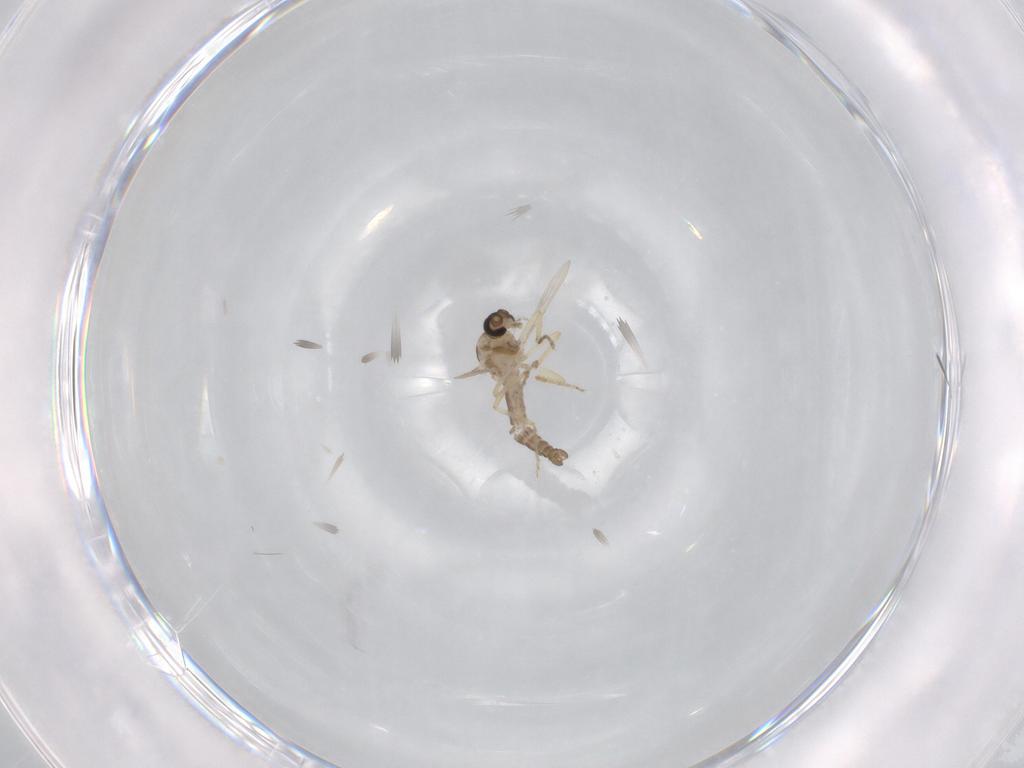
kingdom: Animalia
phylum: Arthropoda
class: Insecta
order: Diptera
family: Ceratopogonidae
